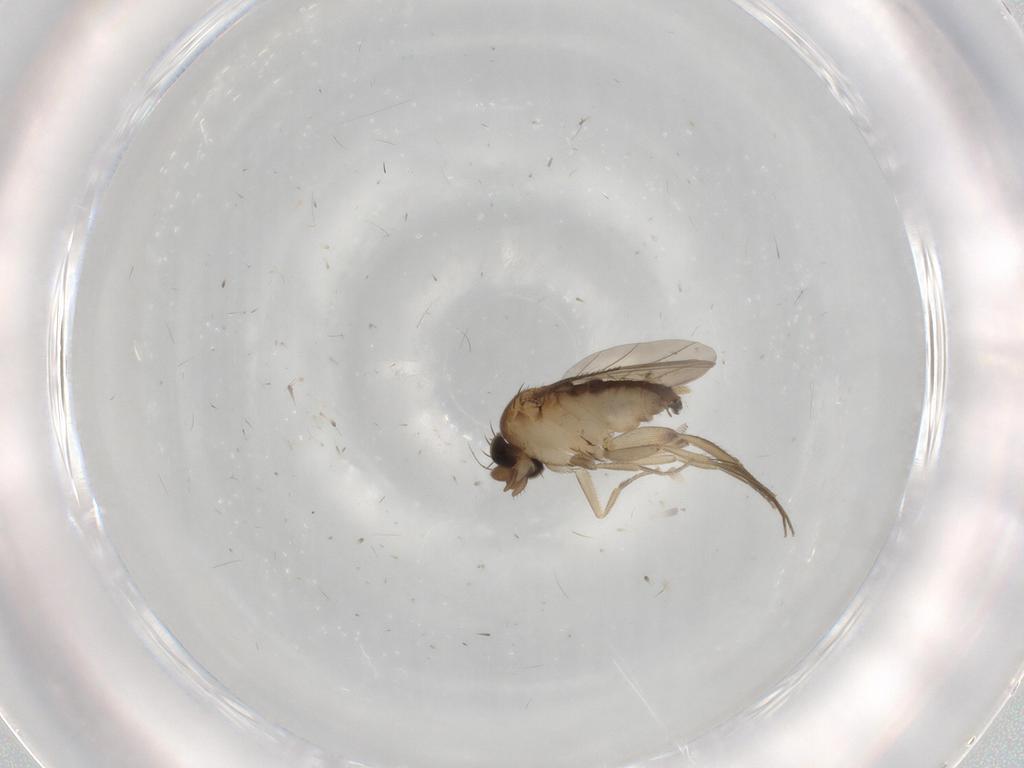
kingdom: Animalia
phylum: Arthropoda
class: Insecta
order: Diptera
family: Phoridae
